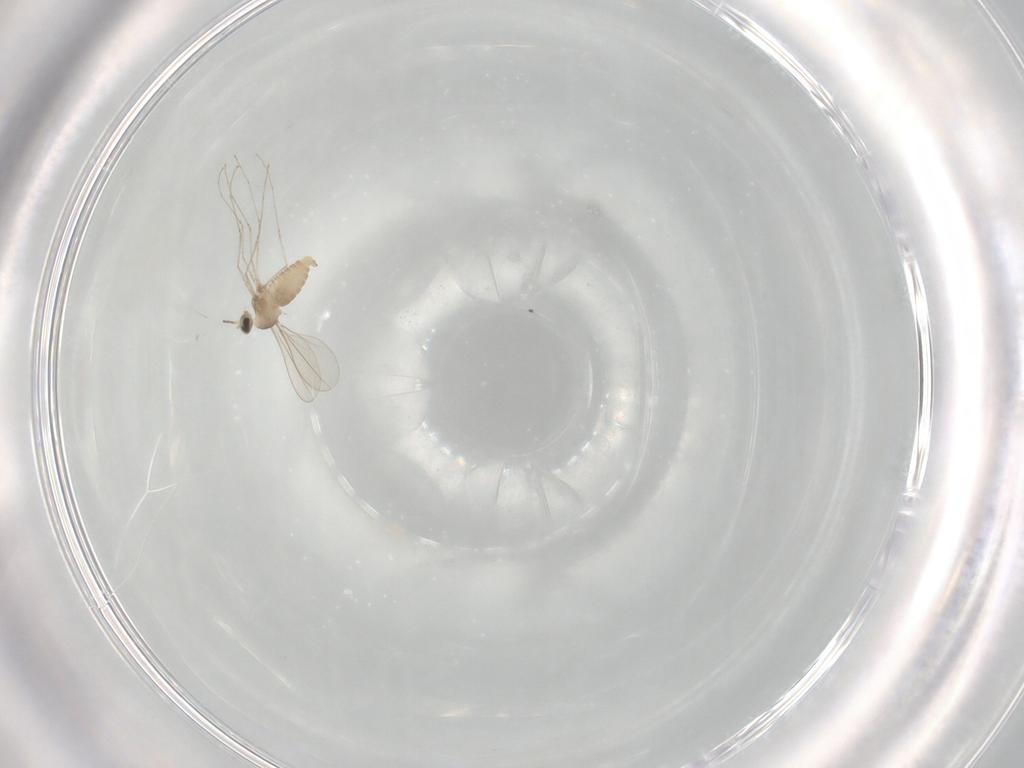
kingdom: Animalia
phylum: Arthropoda
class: Insecta
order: Diptera
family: Cecidomyiidae
